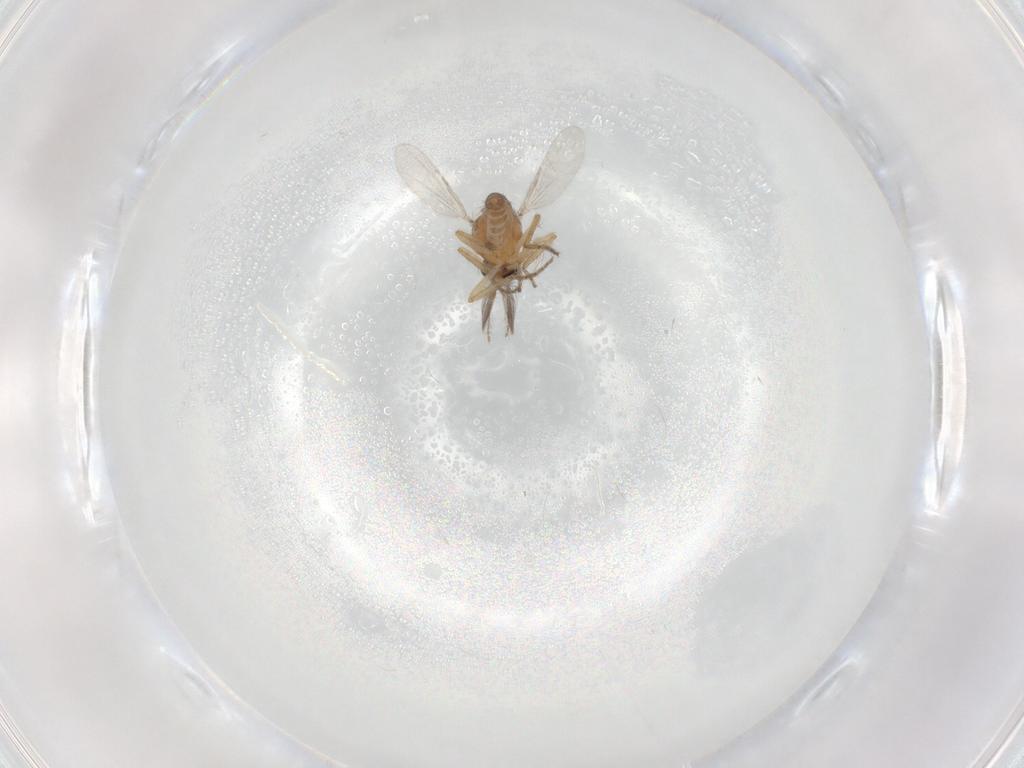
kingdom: Animalia
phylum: Arthropoda
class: Insecta
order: Diptera
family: Ceratopogonidae
